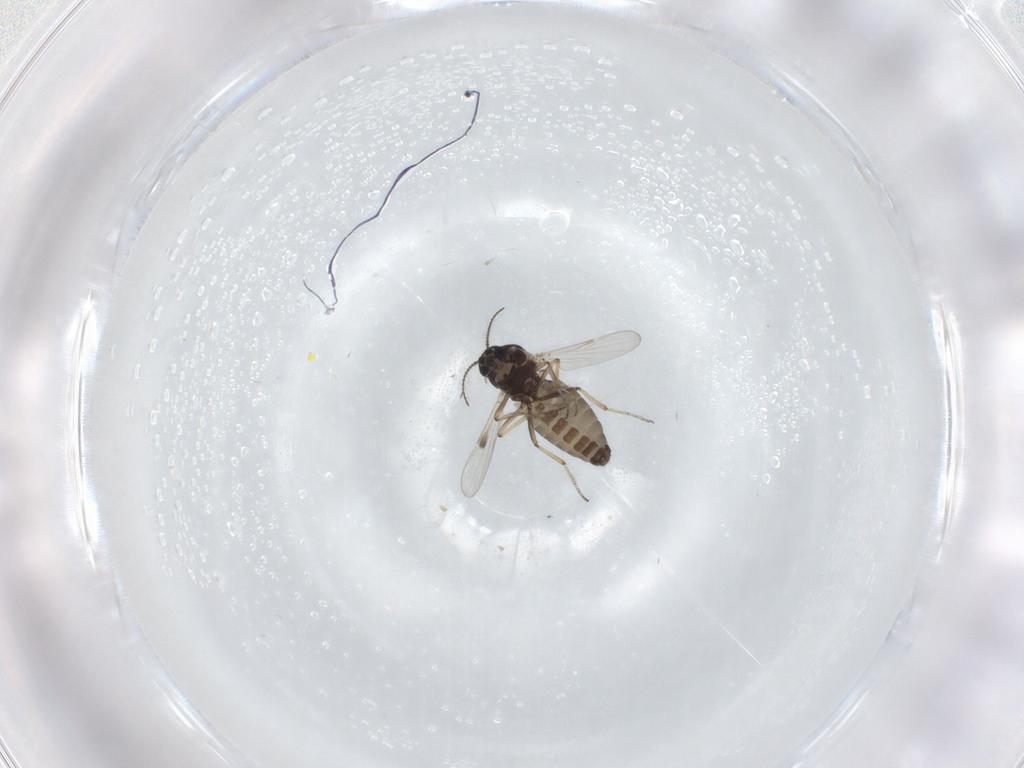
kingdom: Animalia
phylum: Arthropoda
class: Insecta
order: Diptera
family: Ceratopogonidae
